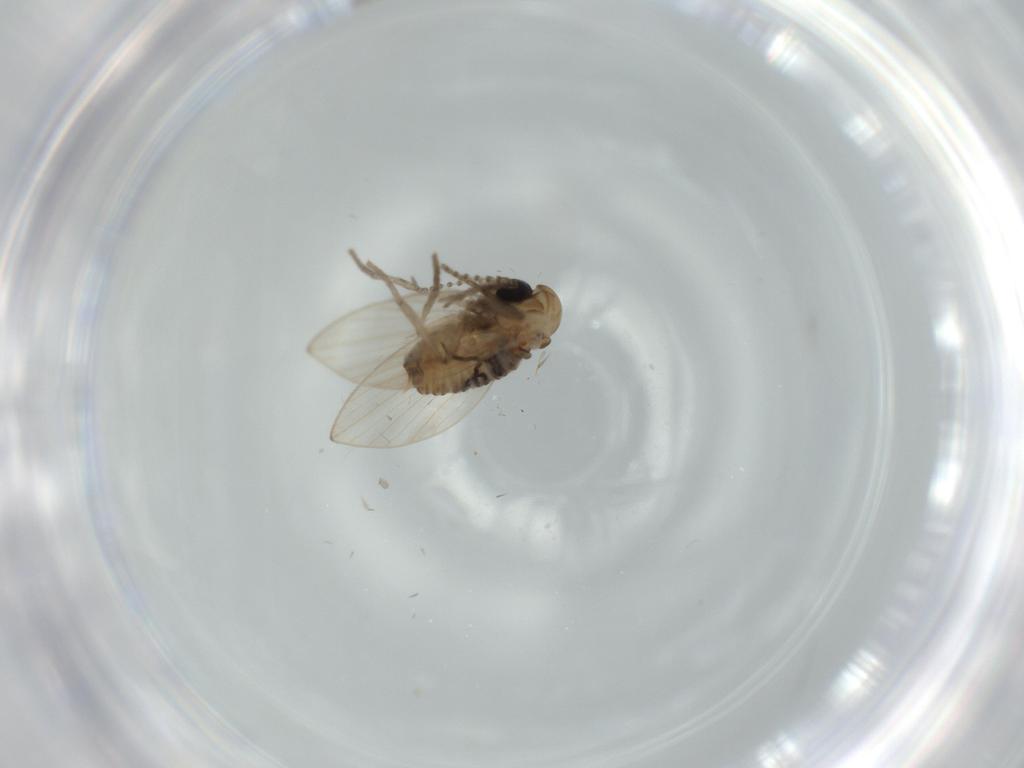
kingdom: Animalia
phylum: Arthropoda
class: Insecta
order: Diptera
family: Psychodidae
